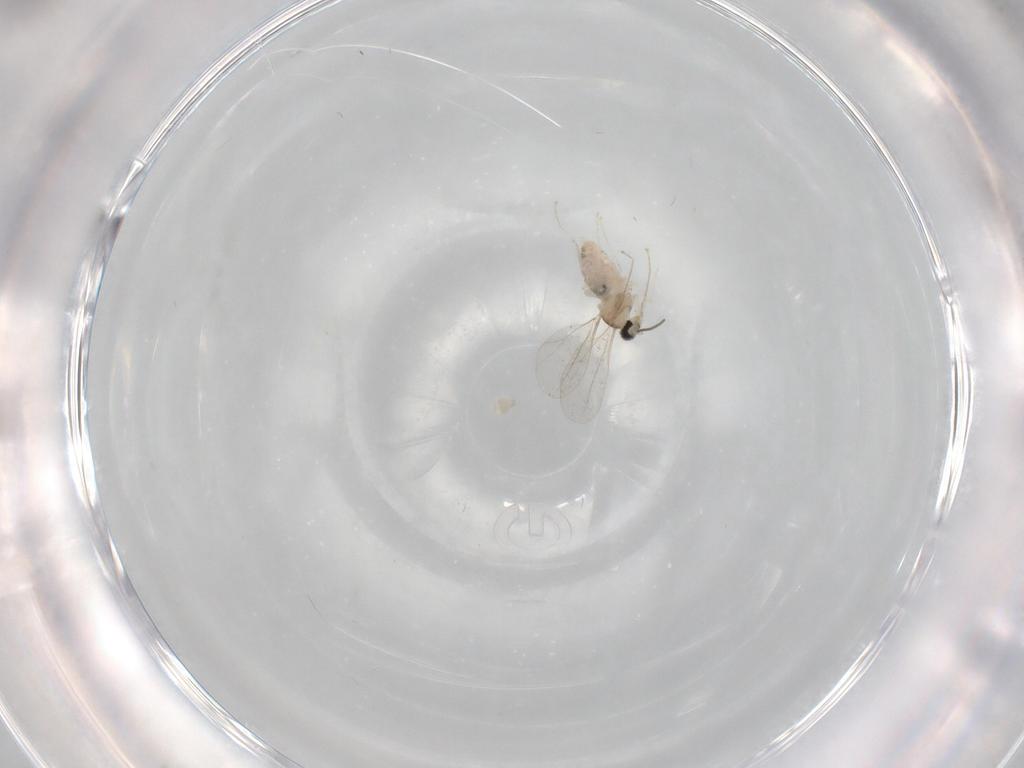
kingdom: Animalia
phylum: Arthropoda
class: Insecta
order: Diptera
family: Cecidomyiidae
